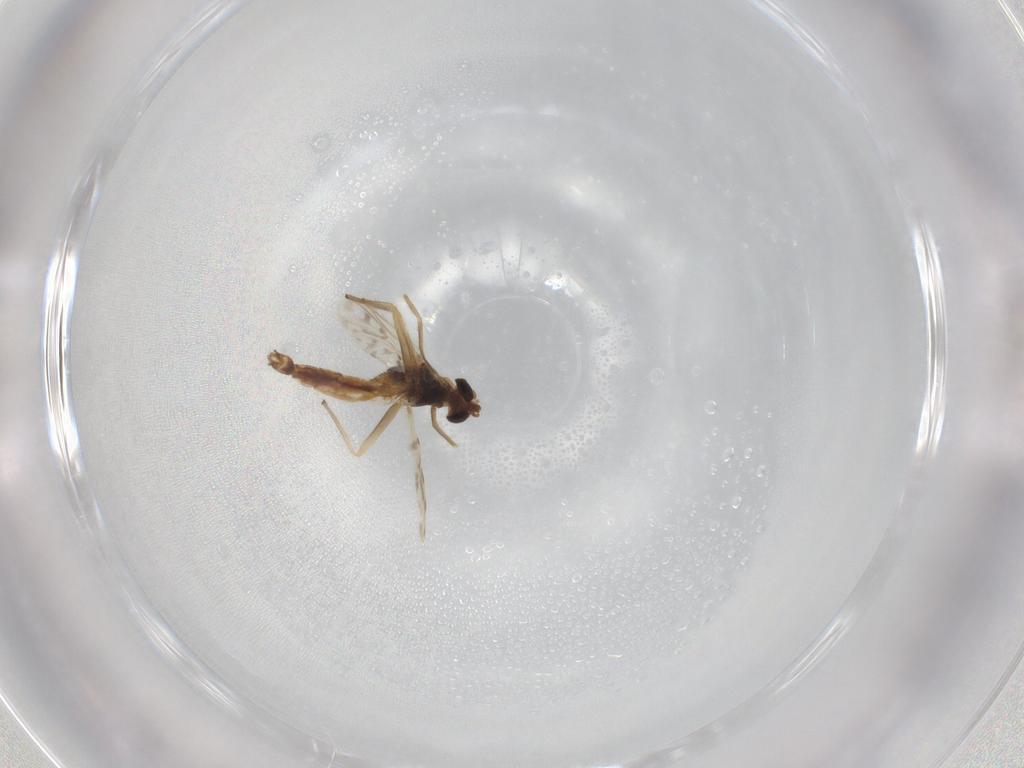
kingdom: Animalia
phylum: Arthropoda
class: Insecta
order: Diptera
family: Chironomidae
